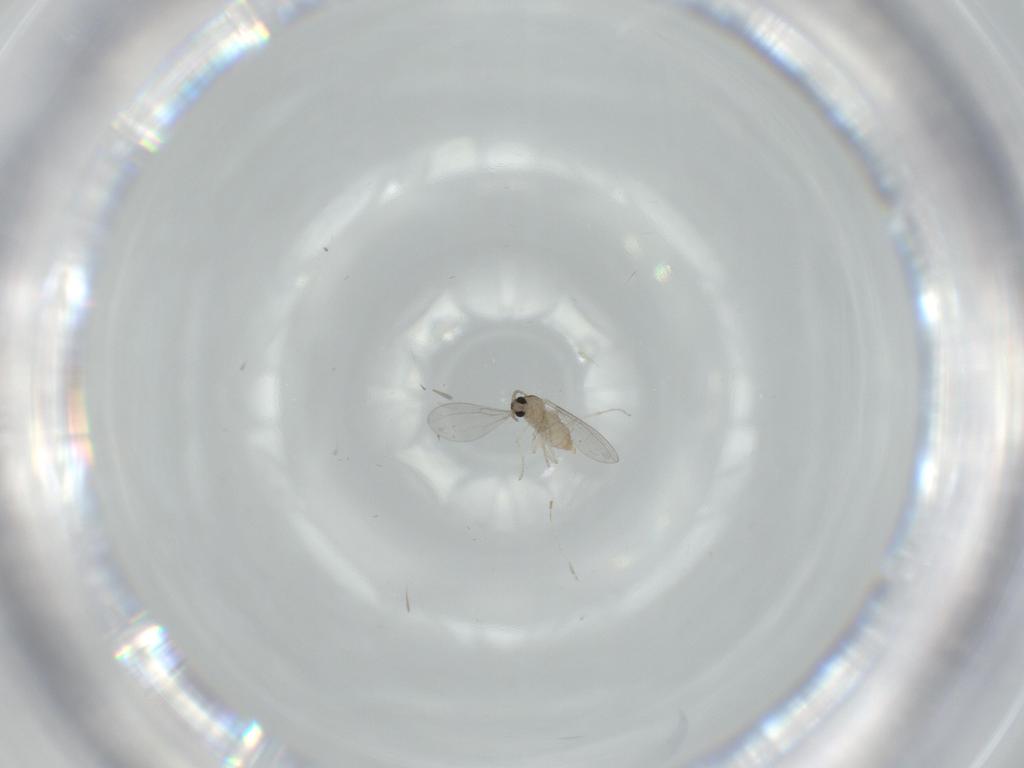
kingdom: Animalia
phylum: Arthropoda
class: Insecta
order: Diptera
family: Cecidomyiidae
